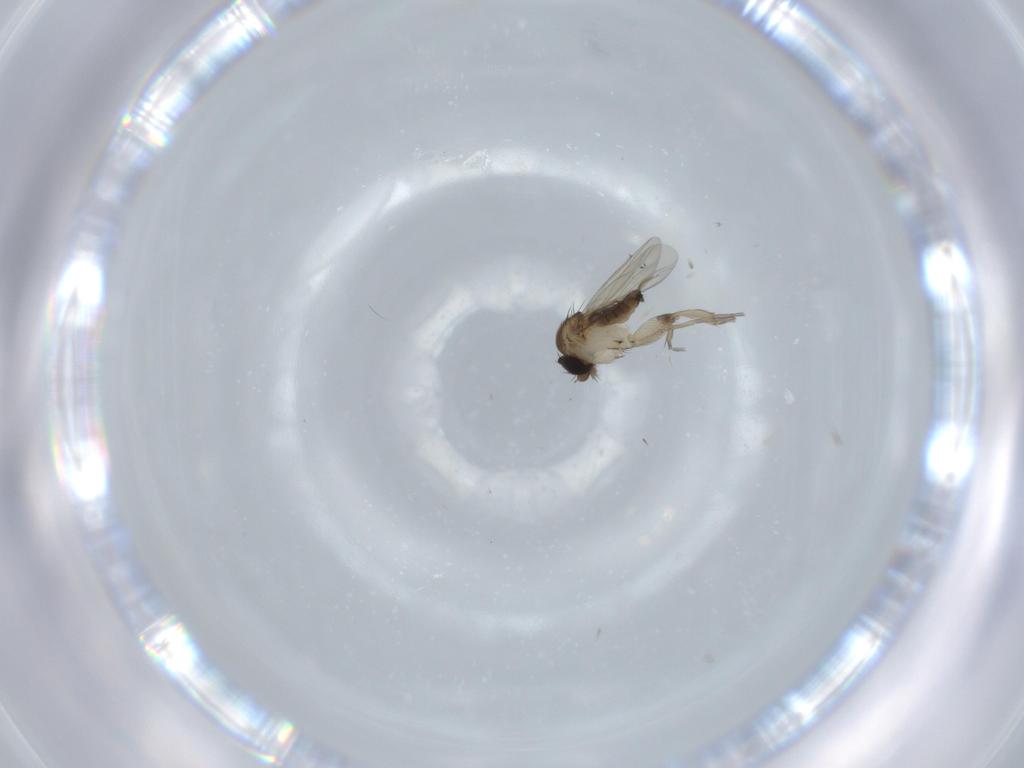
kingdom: Animalia
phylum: Arthropoda
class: Insecta
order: Diptera
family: Phoridae
